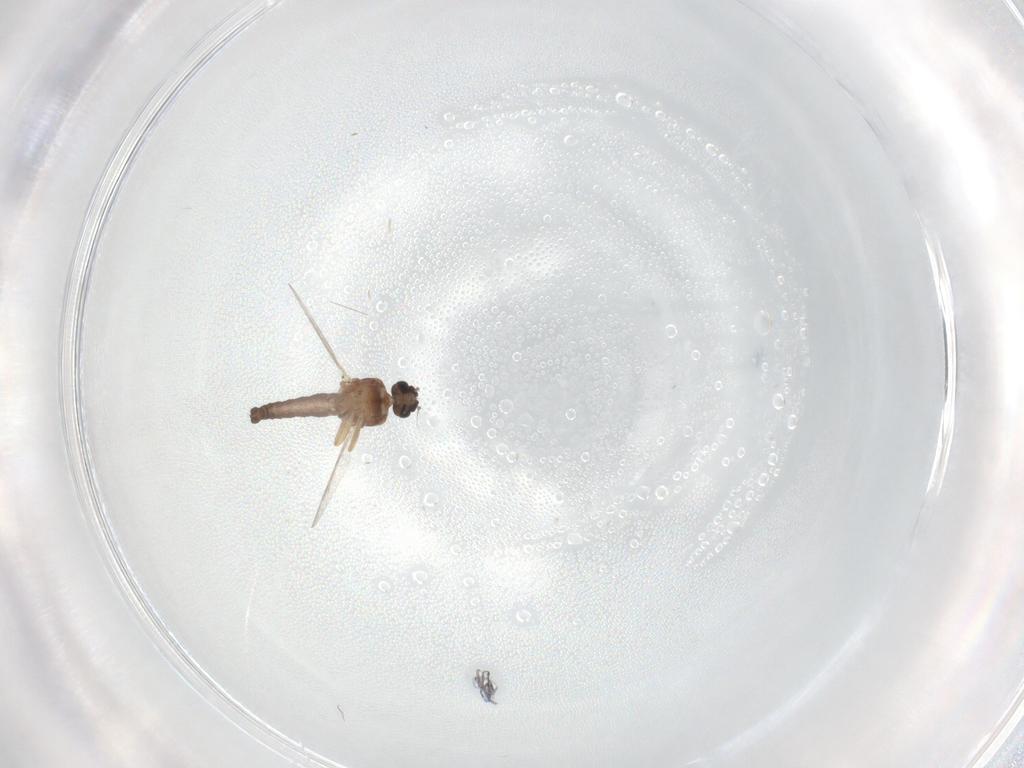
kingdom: Animalia
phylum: Arthropoda
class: Insecta
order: Diptera
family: Ceratopogonidae
